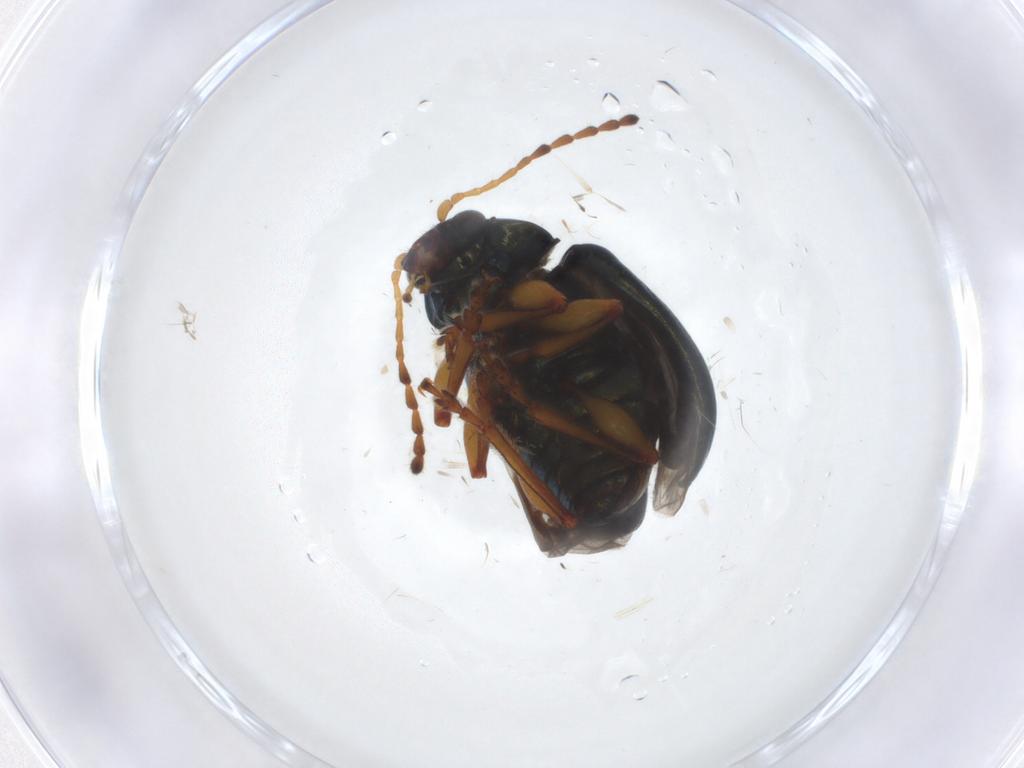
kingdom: Animalia
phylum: Arthropoda
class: Insecta
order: Coleoptera
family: Chrysomelidae
